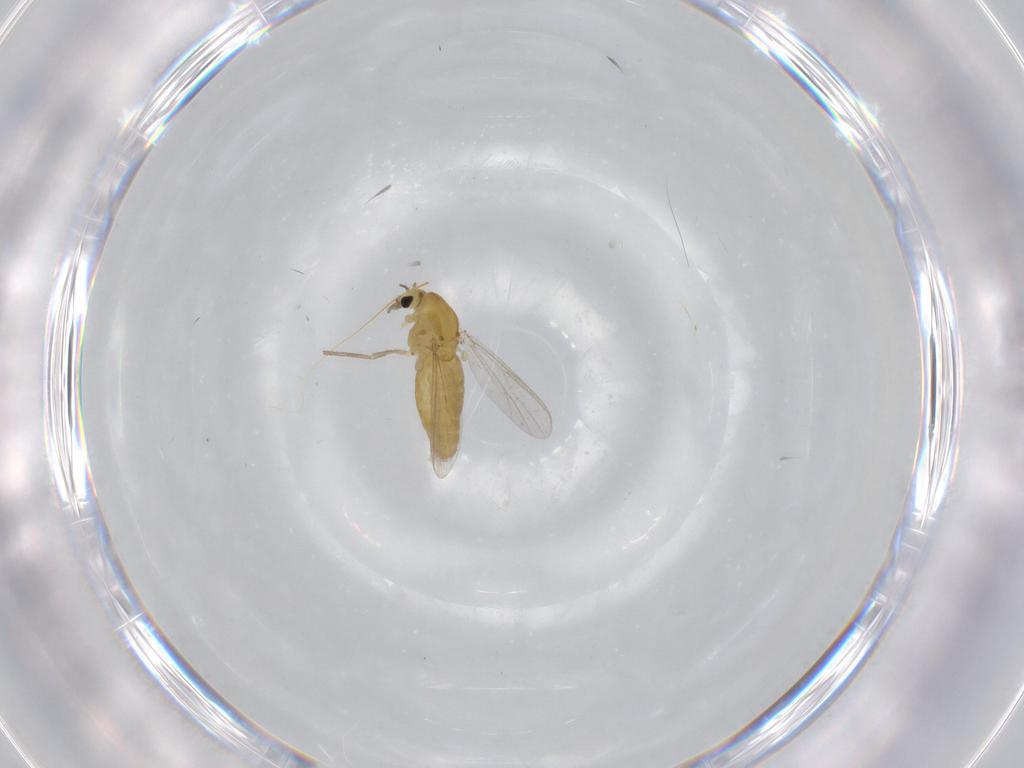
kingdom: Animalia
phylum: Arthropoda
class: Insecta
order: Diptera
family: Chironomidae
